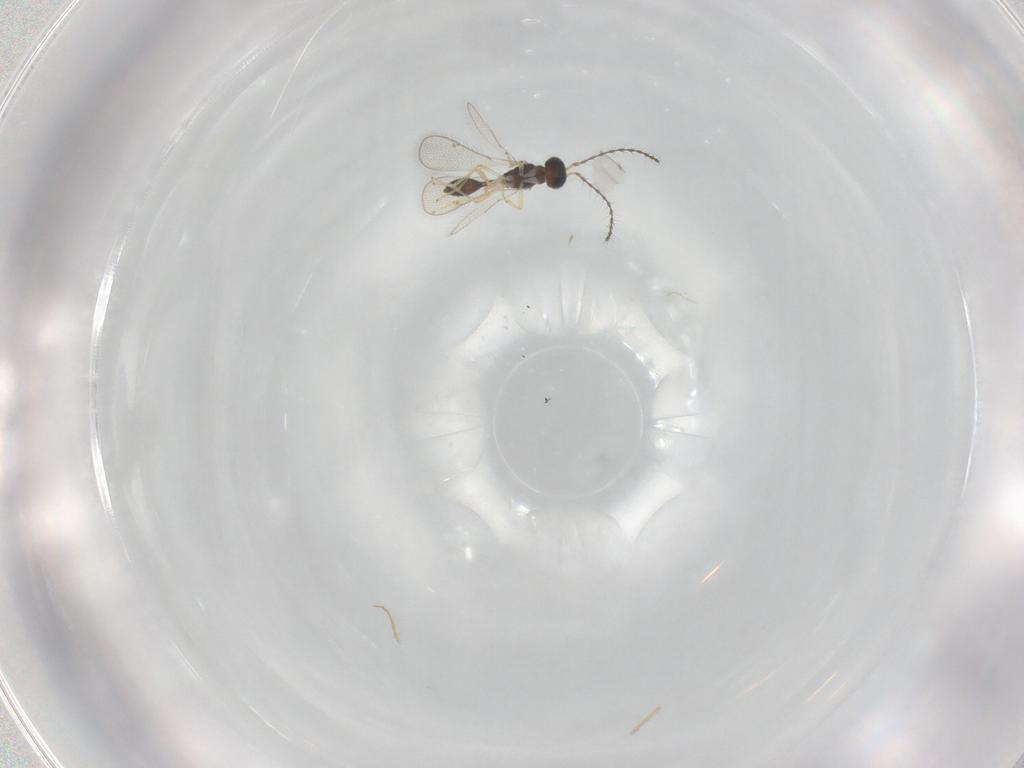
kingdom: Animalia
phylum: Arthropoda
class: Insecta
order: Hymenoptera
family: Diparidae
